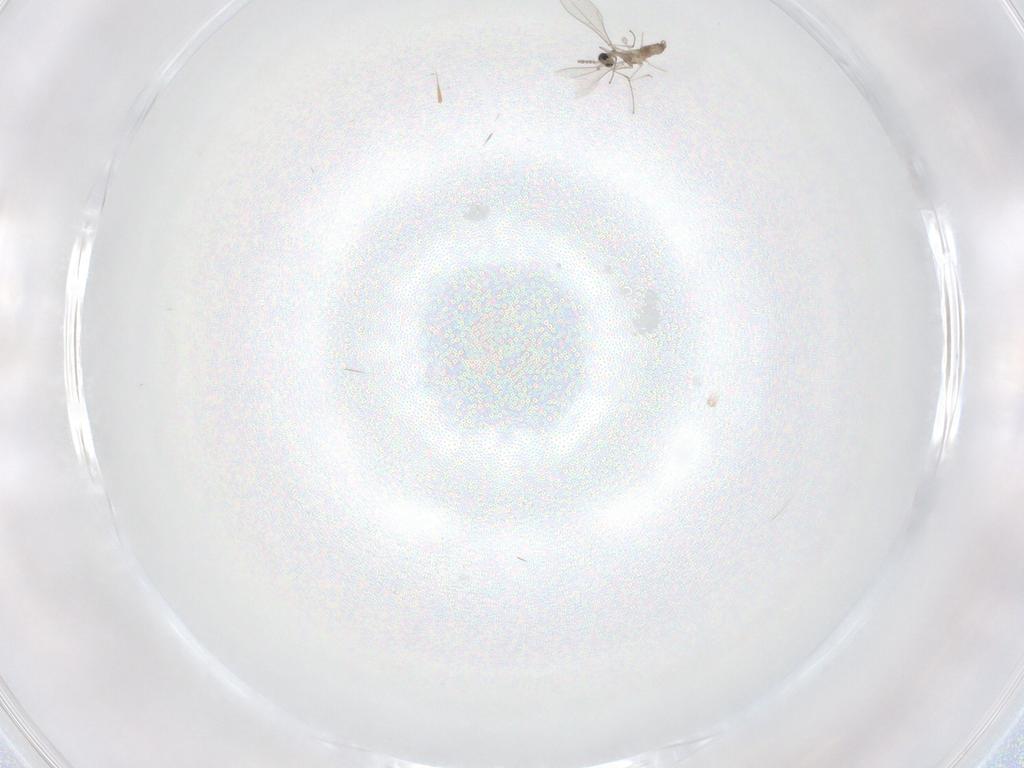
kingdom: Animalia
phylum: Arthropoda
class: Insecta
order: Diptera
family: Cecidomyiidae
